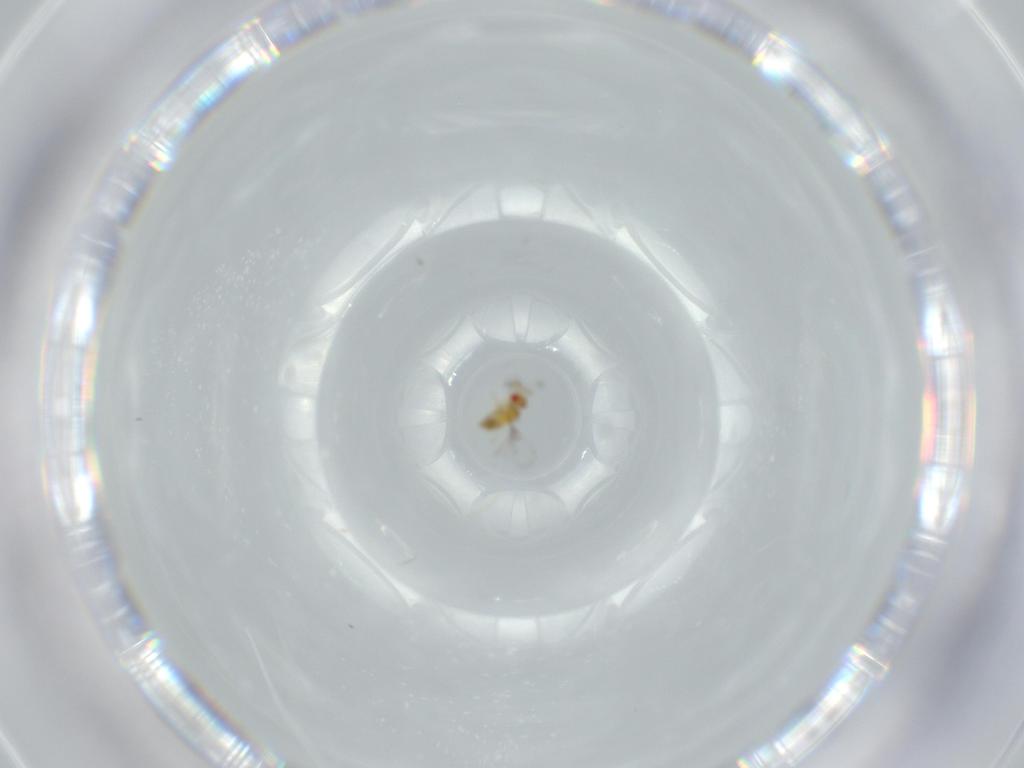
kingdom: Animalia
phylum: Arthropoda
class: Insecta
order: Hymenoptera
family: Trichogrammatidae
